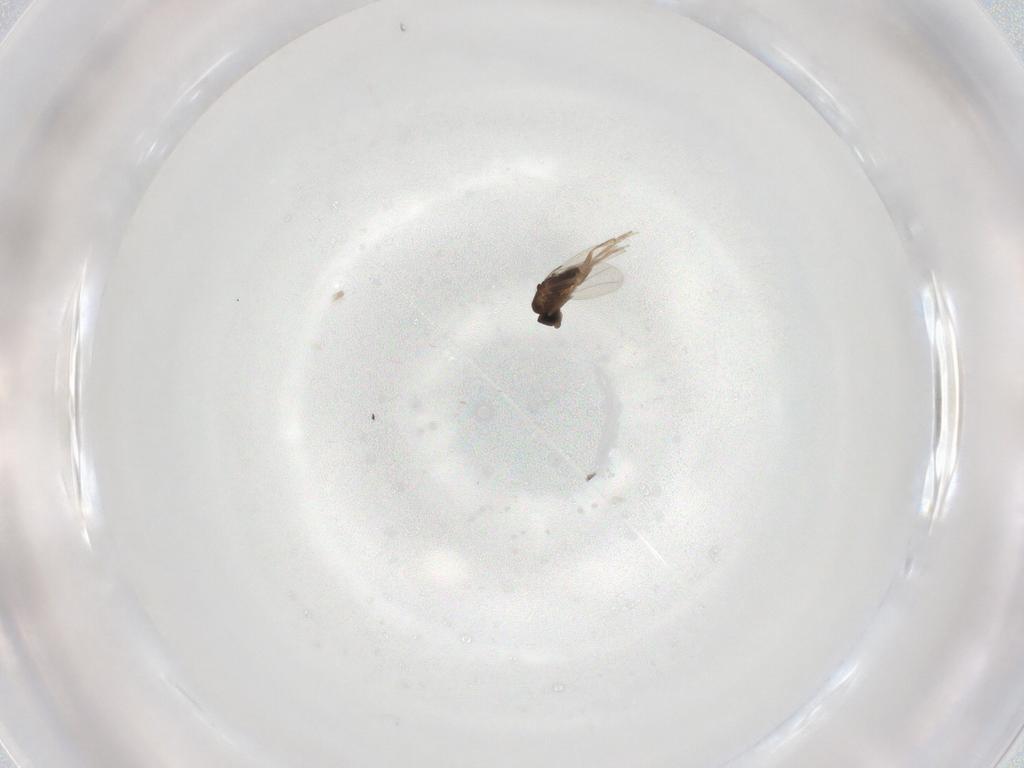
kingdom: Animalia
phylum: Arthropoda
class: Insecta
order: Diptera
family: Phoridae
